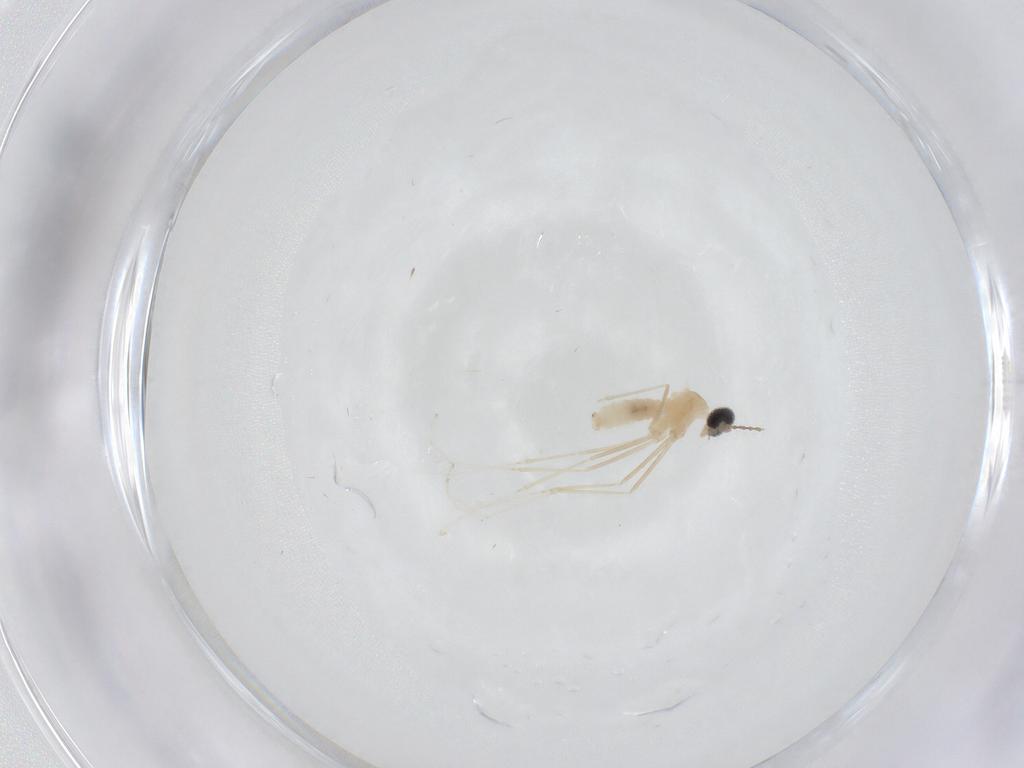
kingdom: Animalia
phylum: Arthropoda
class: Insecta
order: Diptera
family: Cecidomyiidae
